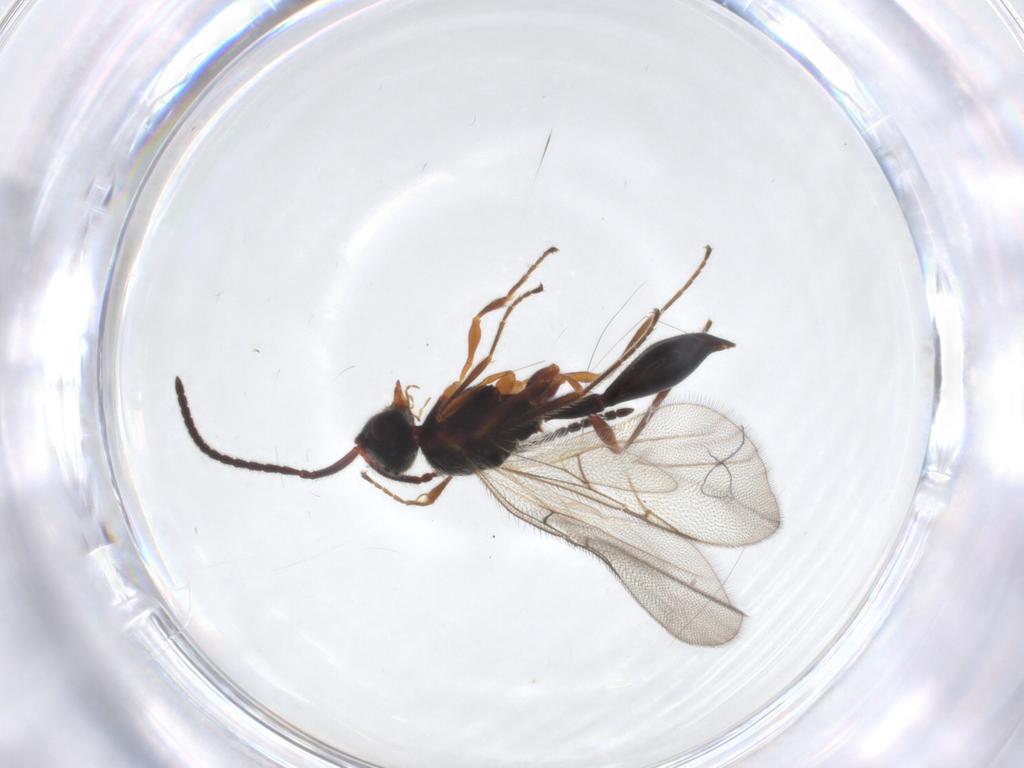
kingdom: Animalia
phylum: Arthropoda
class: Insecta
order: Hymenoptera
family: Diapriidae
